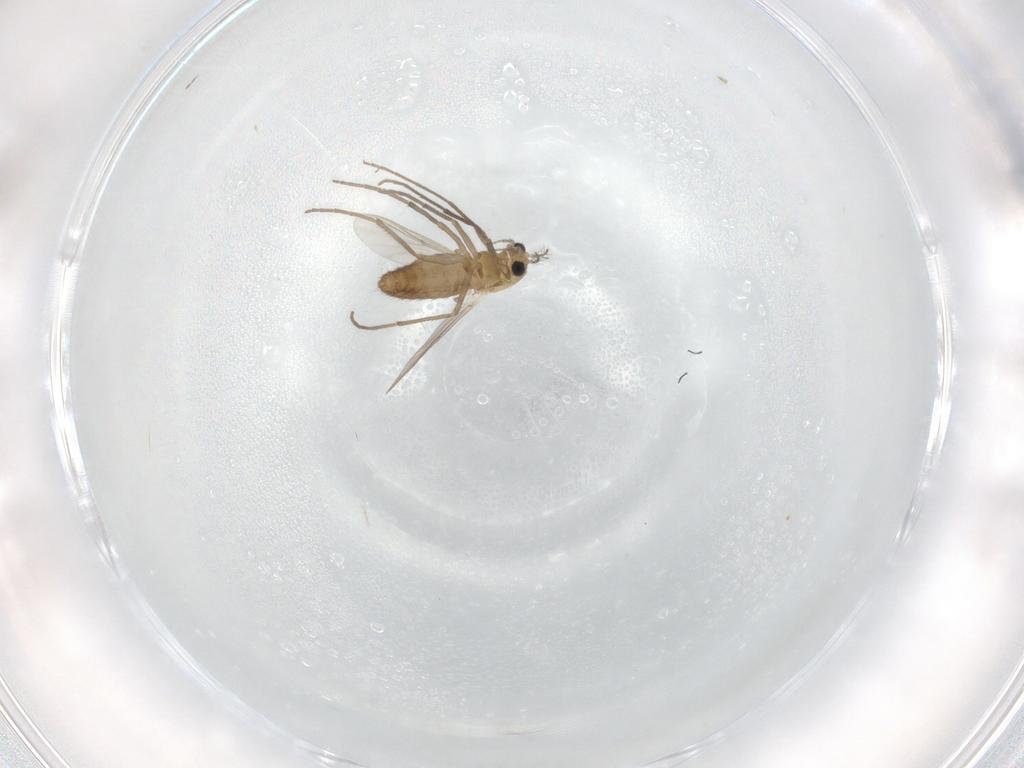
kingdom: Animalia
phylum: Arthropoda
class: Insecta
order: Diptera
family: Chironomidae
